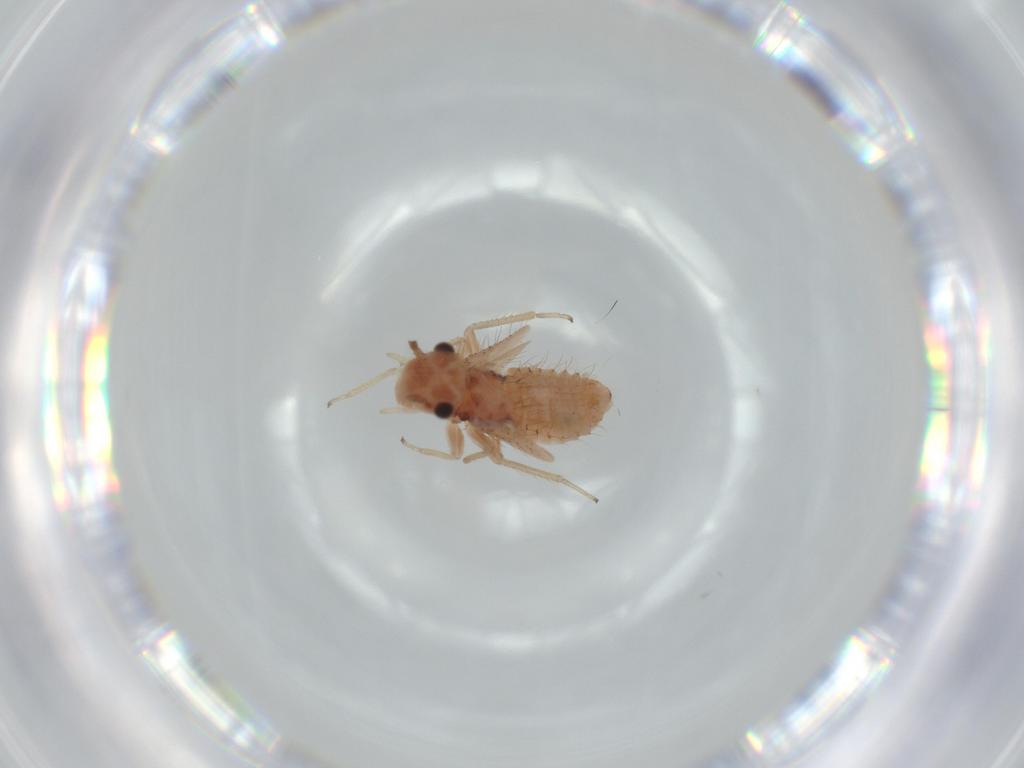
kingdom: Animalia
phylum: Arthropoda
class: Insecta
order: Psocodea
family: Pseudocaeciliidae
